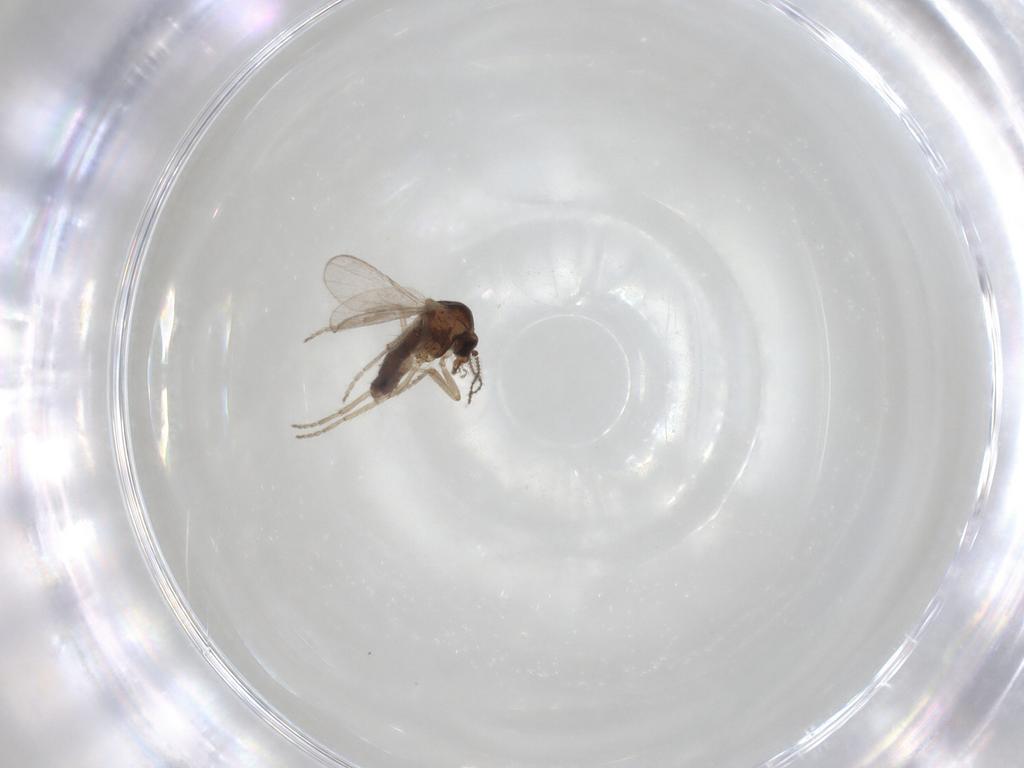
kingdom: Animalia
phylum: Arthropoda
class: Insecta
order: Diptera
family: Ceratopogonidae
